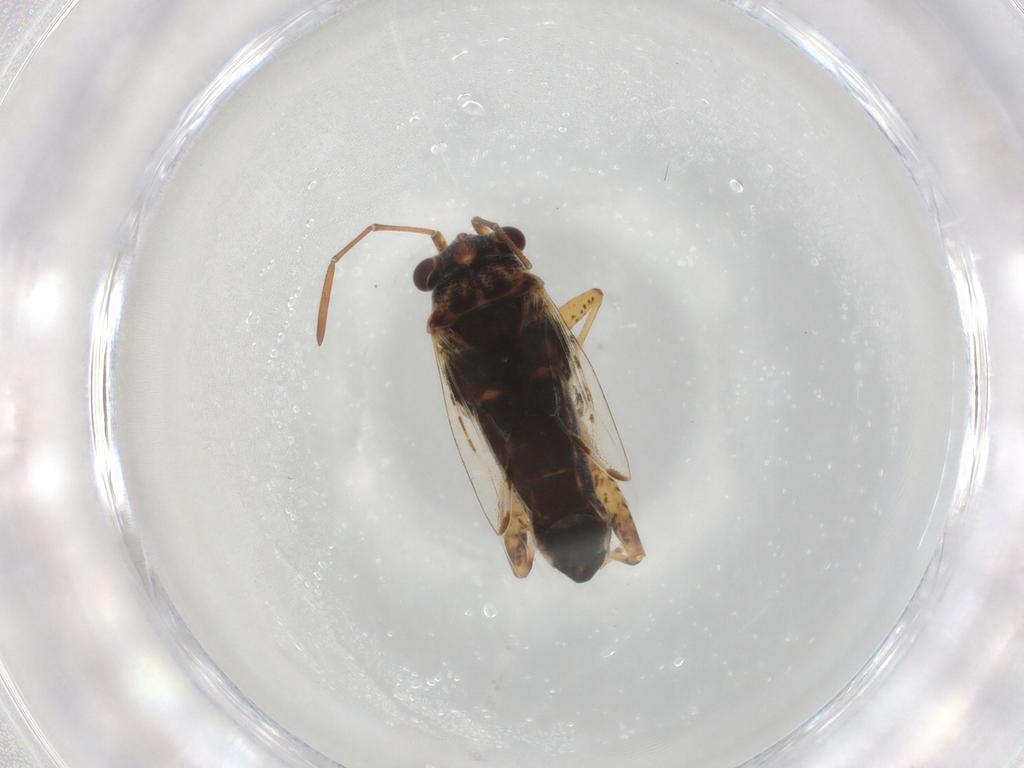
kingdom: Animalia
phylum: Arthropoda
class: Insecta
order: Hemiptera
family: Lygaeidae
